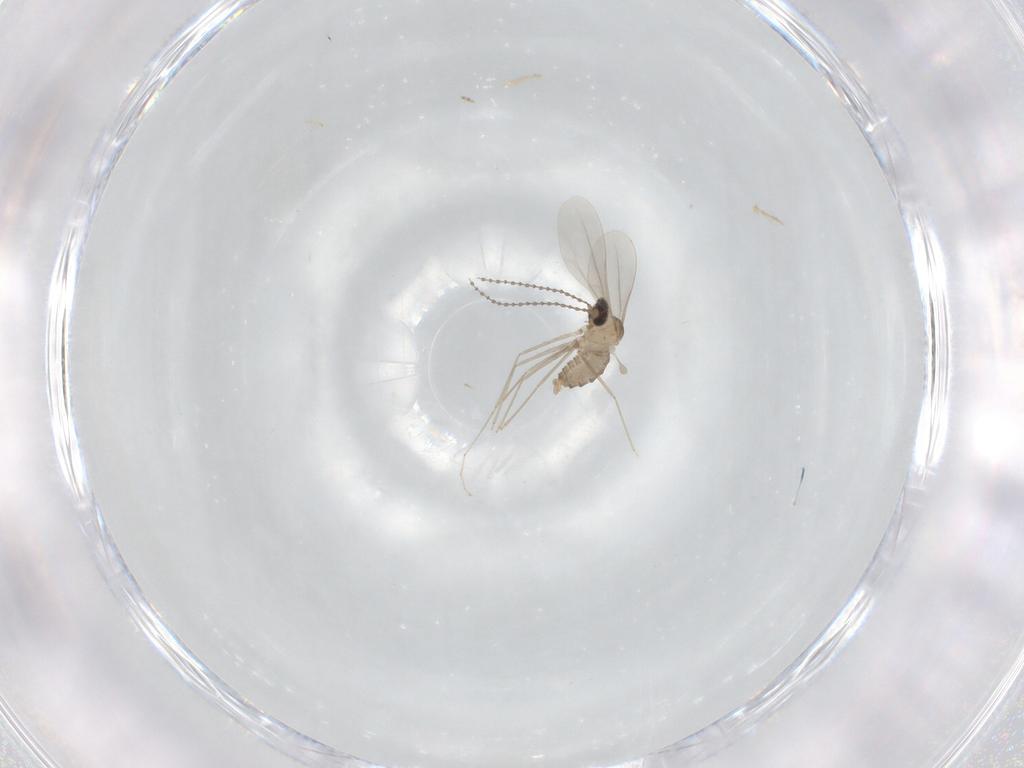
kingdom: Animalia
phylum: Arthropoda
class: Insecta
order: Diptera
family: Cecidomyiidae
